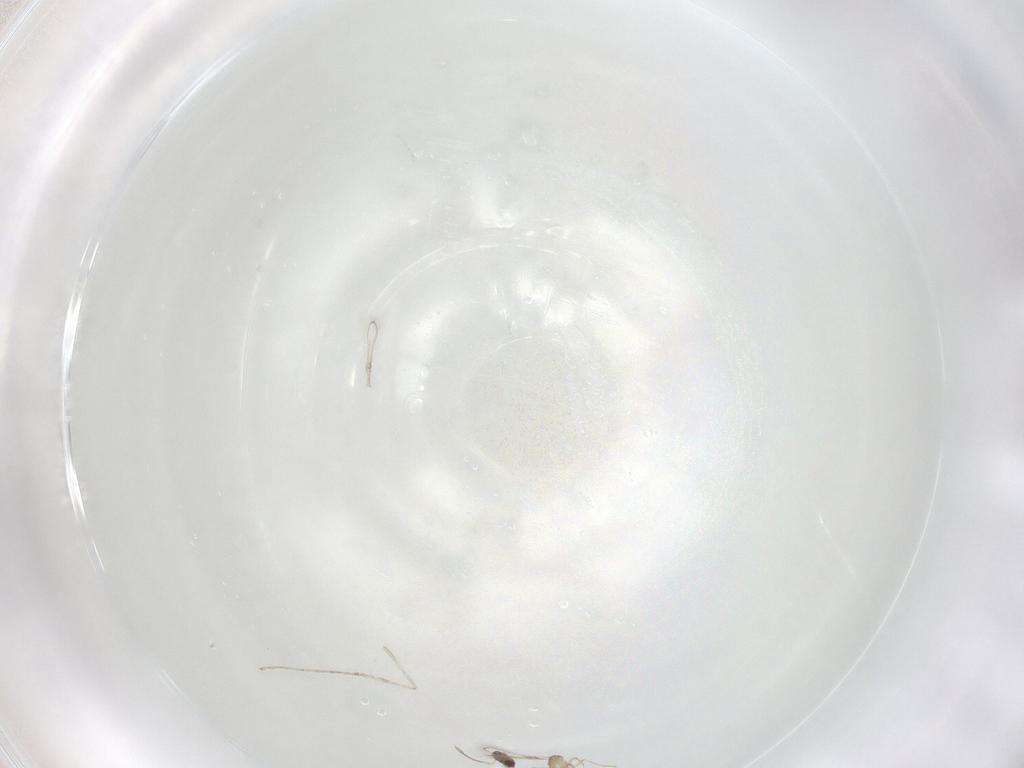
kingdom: Animalia
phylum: Arthropoda
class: Insecta
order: Hymenoptera
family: Mymaridae
